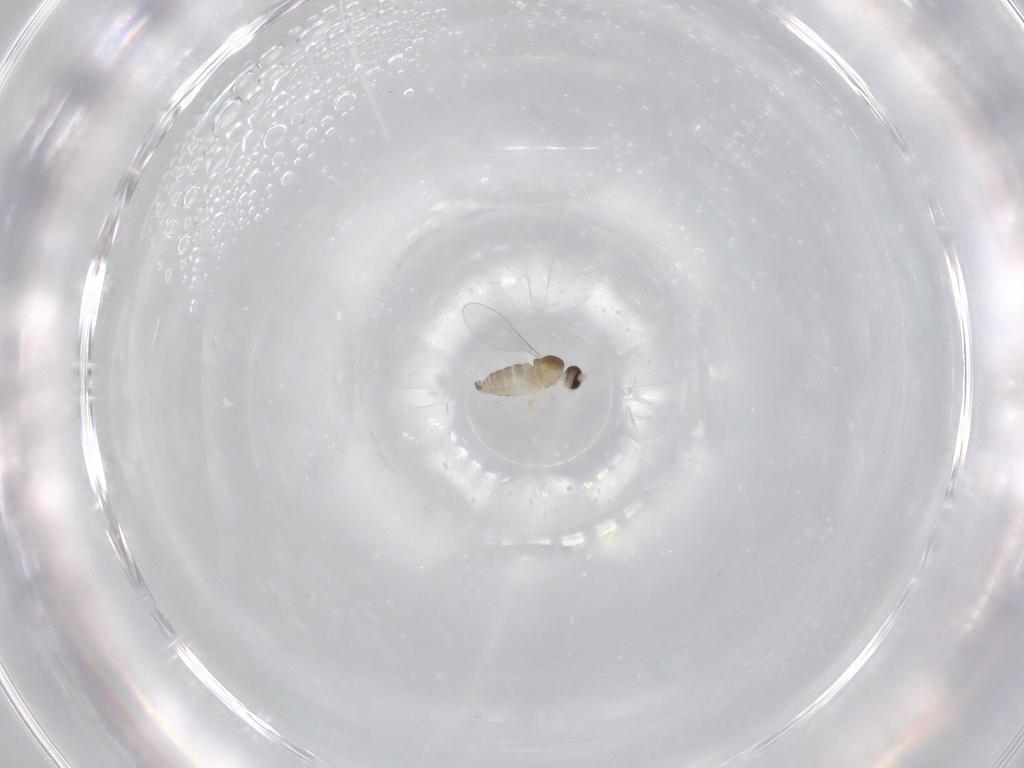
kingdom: Animalia
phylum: Arthropoda
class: Insecta
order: Diptera
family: Cecidomyiidae
